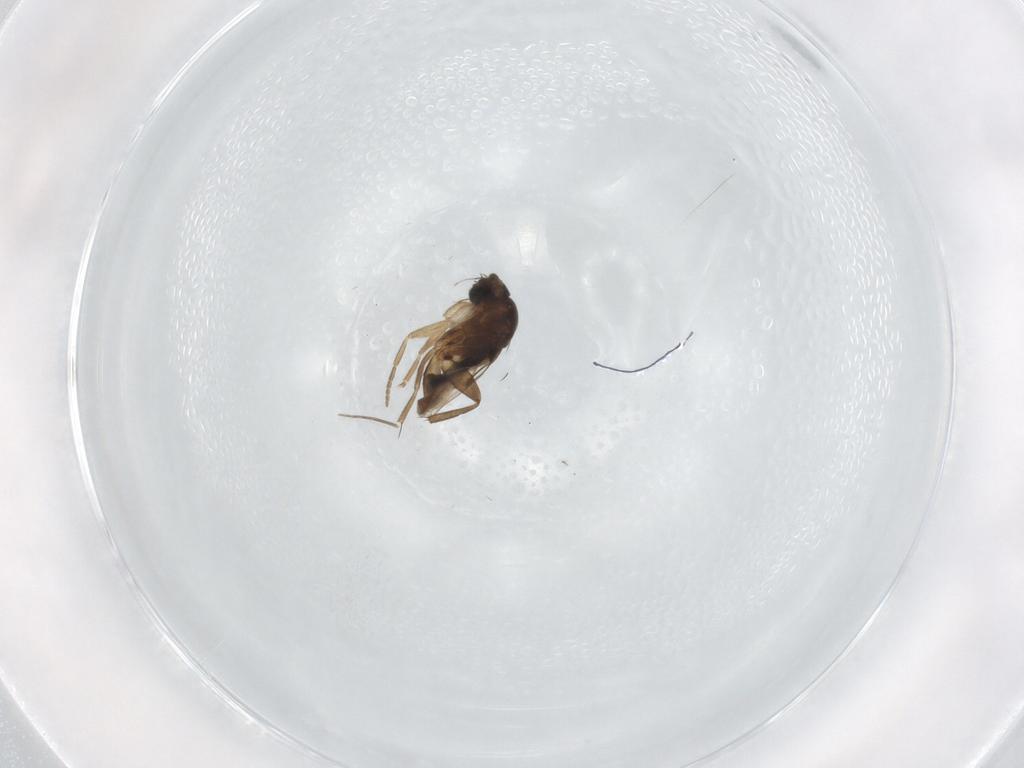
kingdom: Animalia
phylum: Arthropoda
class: Insecta
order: Diptera
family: Phoridae
